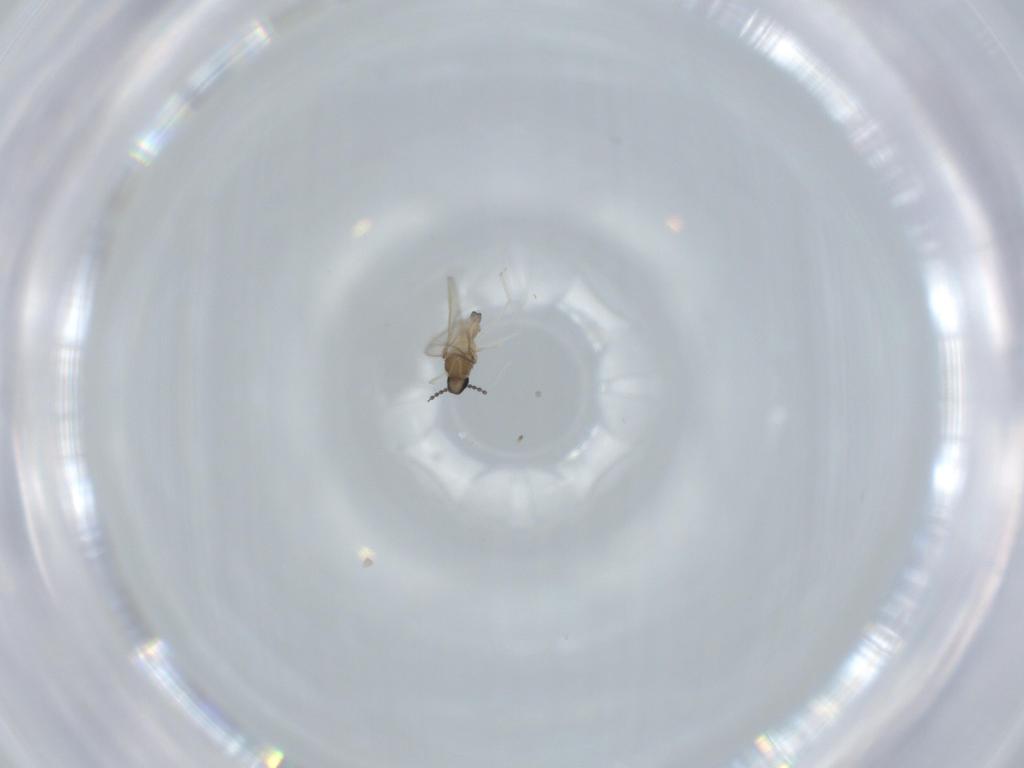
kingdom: Animalia
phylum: Arthropoda
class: Insecta
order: Diptera
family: Cecidomyiidae
